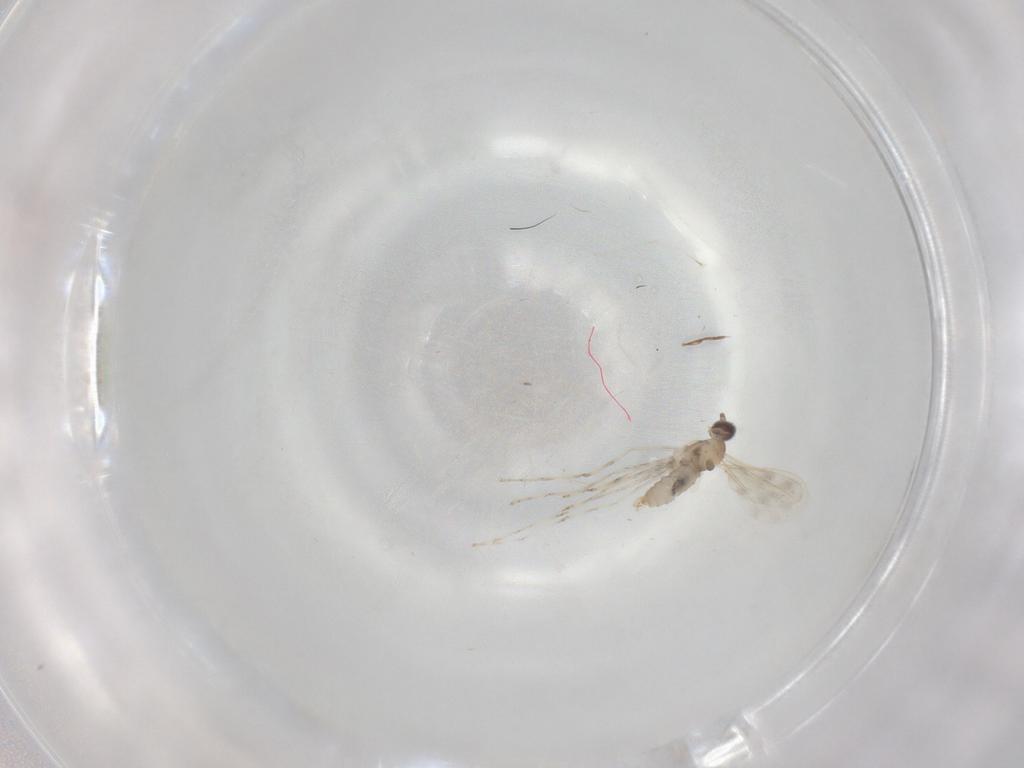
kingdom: Animalia
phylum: Arthropoda
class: Insecta
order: Diptera
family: Cecidomyiidae
